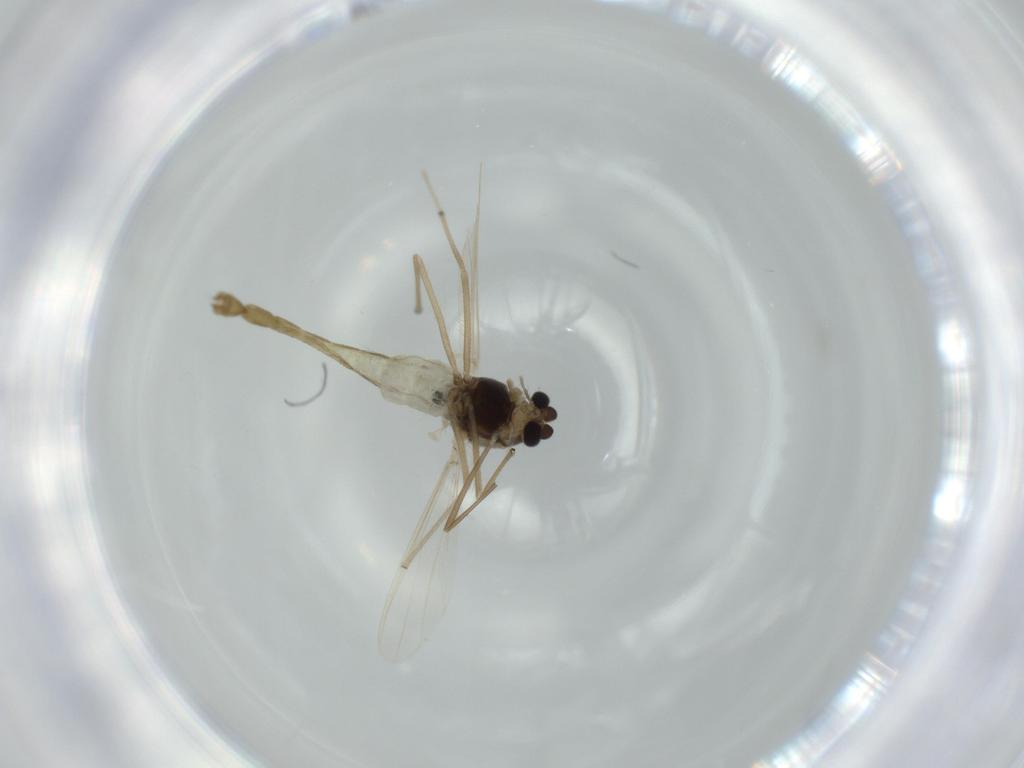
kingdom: Animalia
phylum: Arthropoda
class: Insecta
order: Diptera
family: Chironomidae
